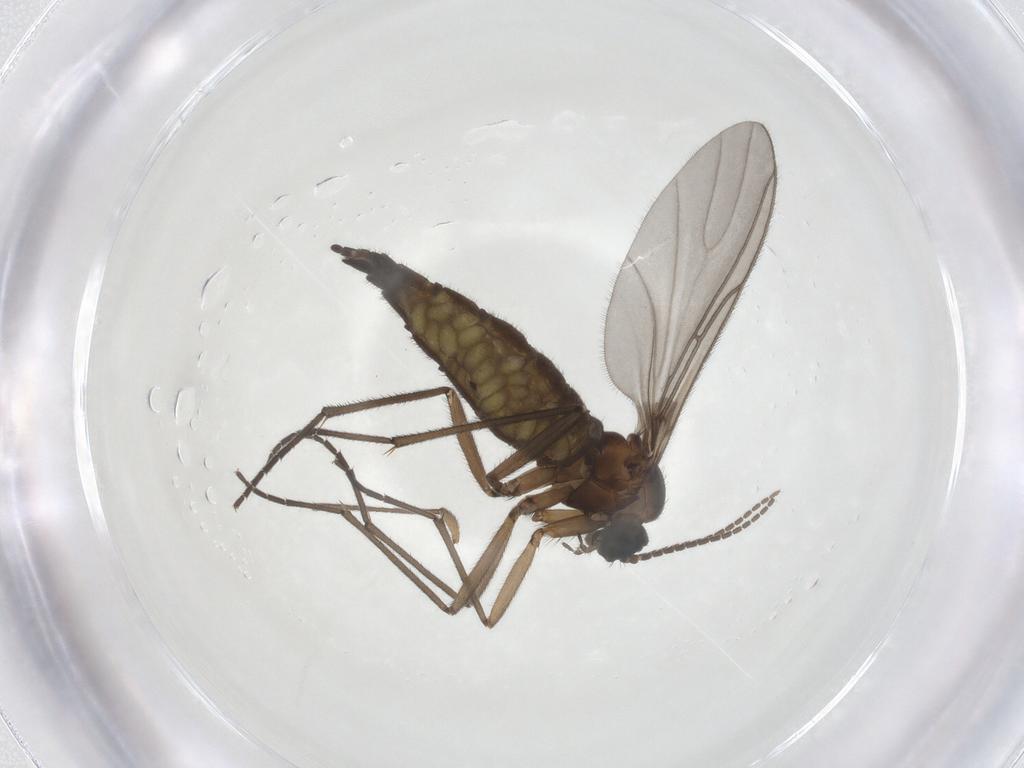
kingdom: Animalia
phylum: Arthropoda
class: Insecta
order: Diptera
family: Sciaridae
